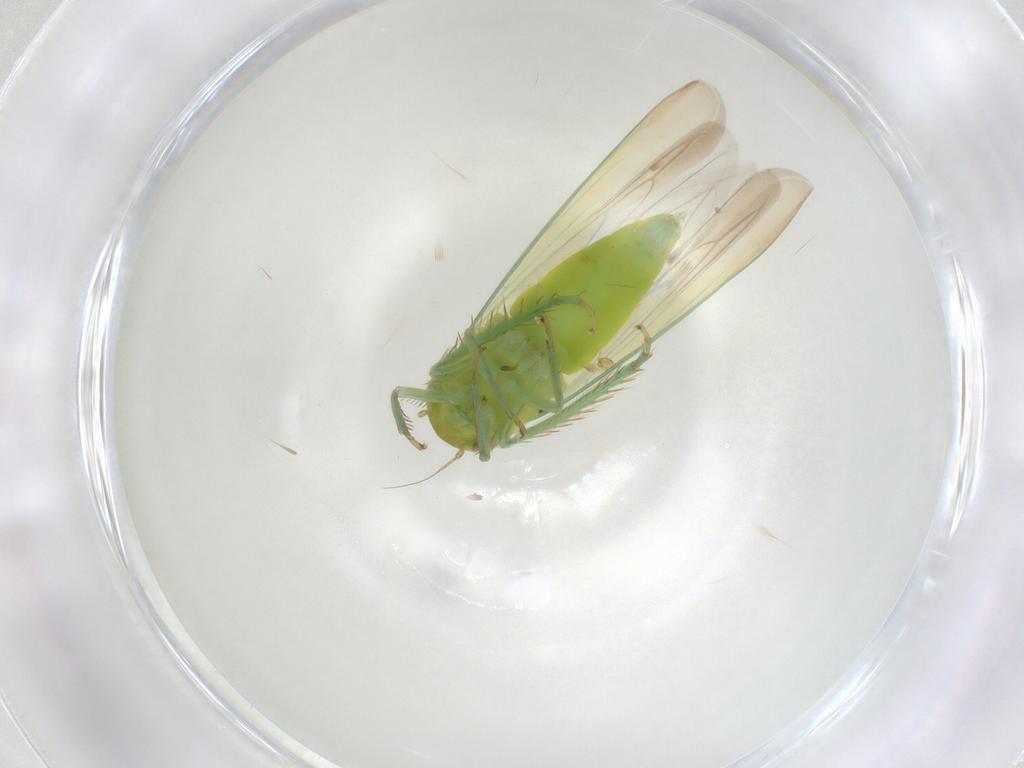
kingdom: Animalia
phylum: Arthropoda
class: Insecta
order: Hemiptera
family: Cicadellidae
